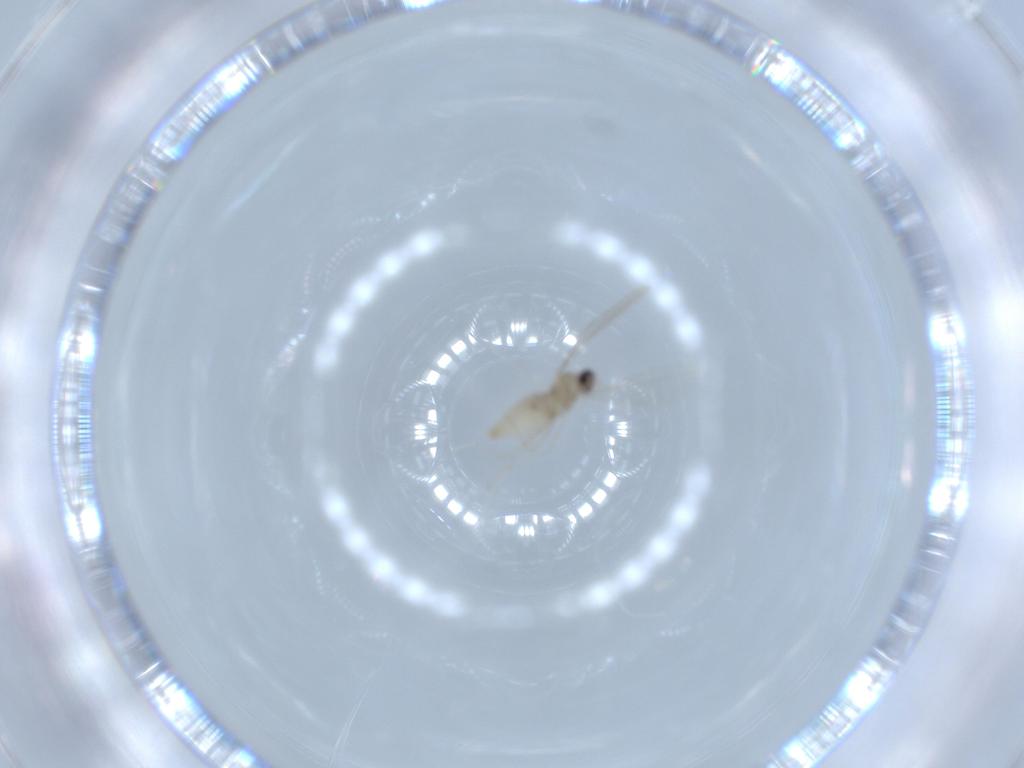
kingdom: Animalia
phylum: Arthropoda
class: Insecta
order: Diptera
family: Cecidomyiidae
